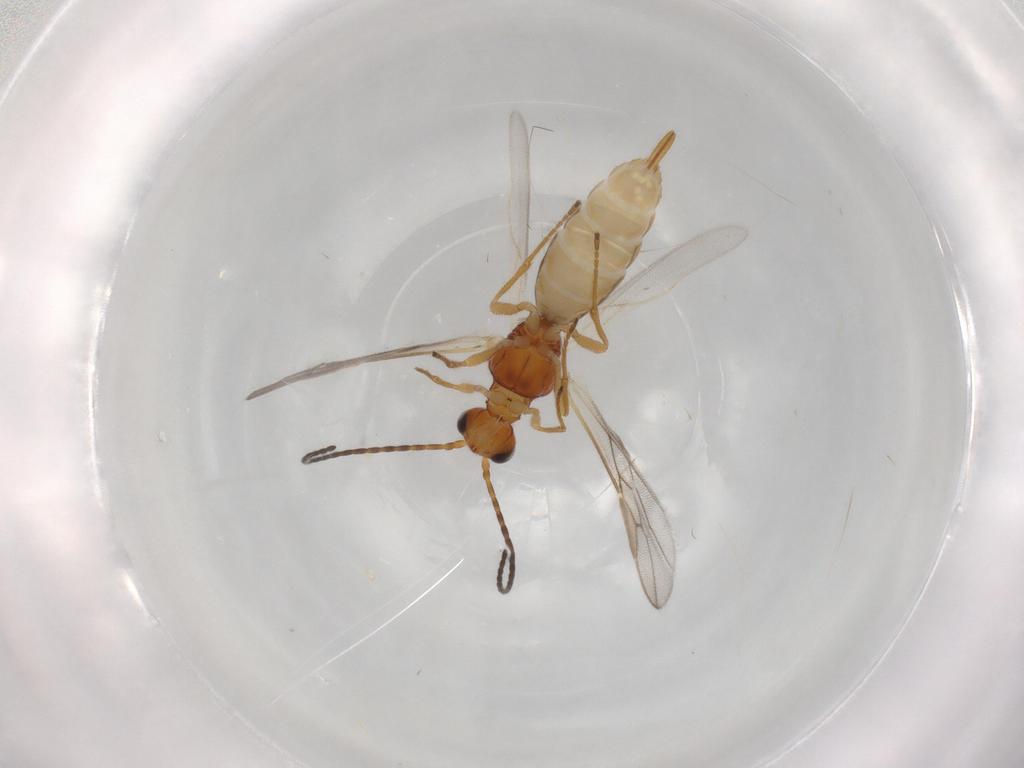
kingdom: Animalia
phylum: Arthropoda
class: Insecta
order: Hymenoptera
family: Braconidae
